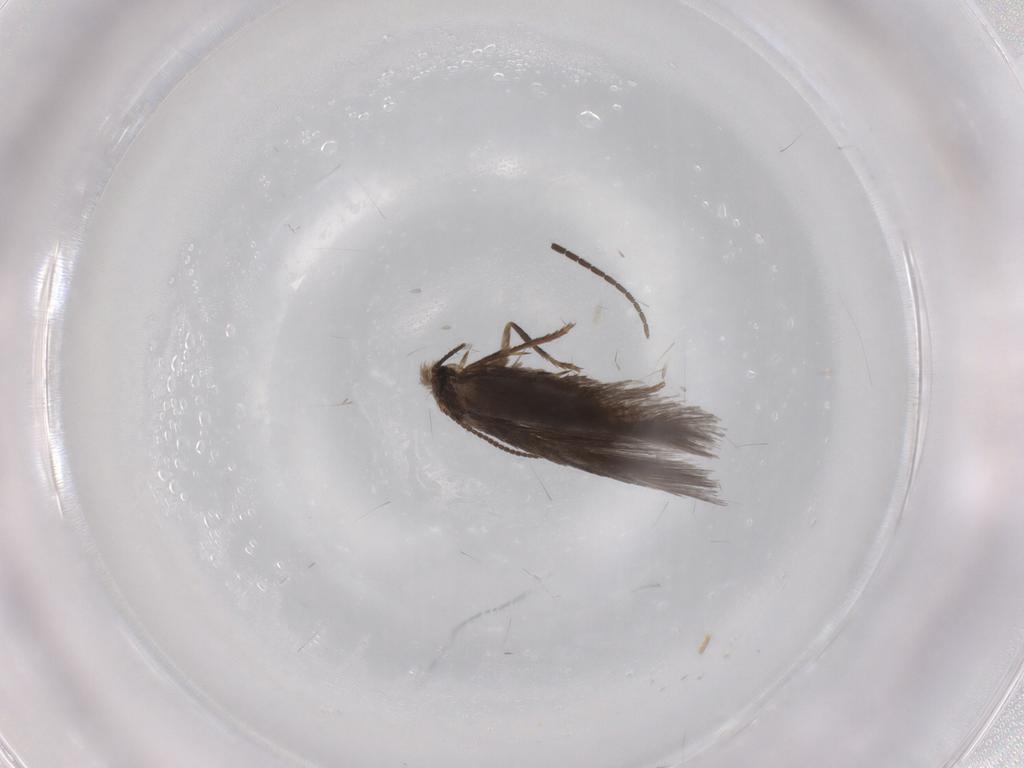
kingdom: Animalia
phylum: Arthropoda
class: Insecta
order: Lepidoptera
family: Nepticulidae
